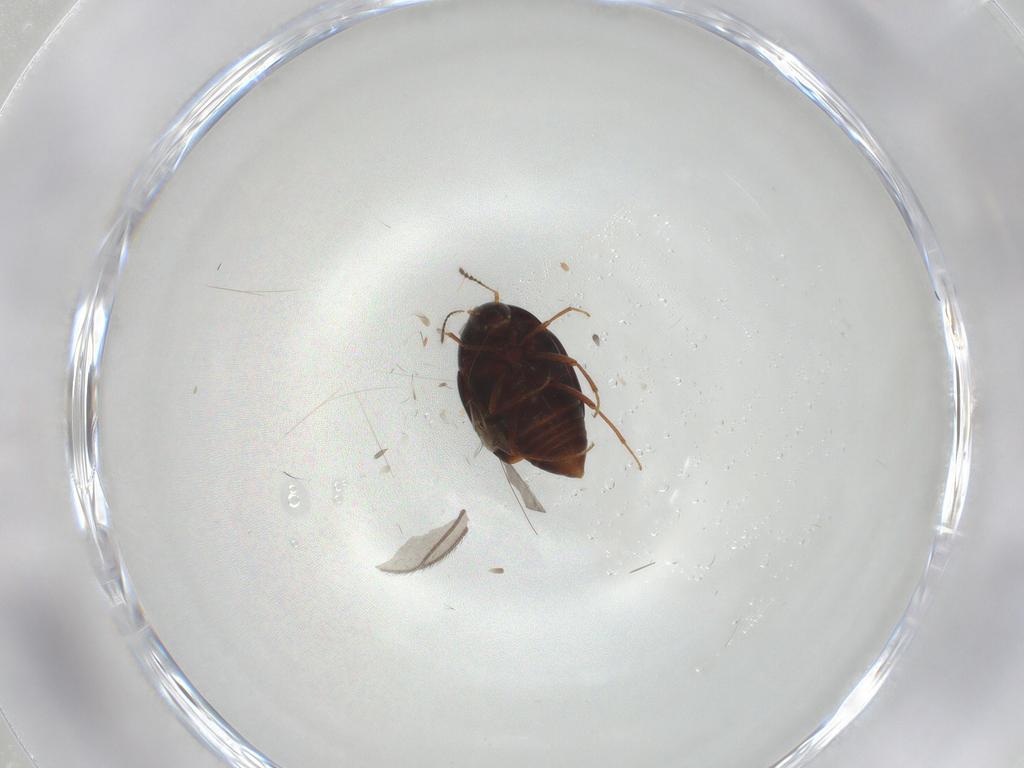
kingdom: Animalia
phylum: Arthropoda
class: Insecta
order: Coleoptera
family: Staphylinidae
